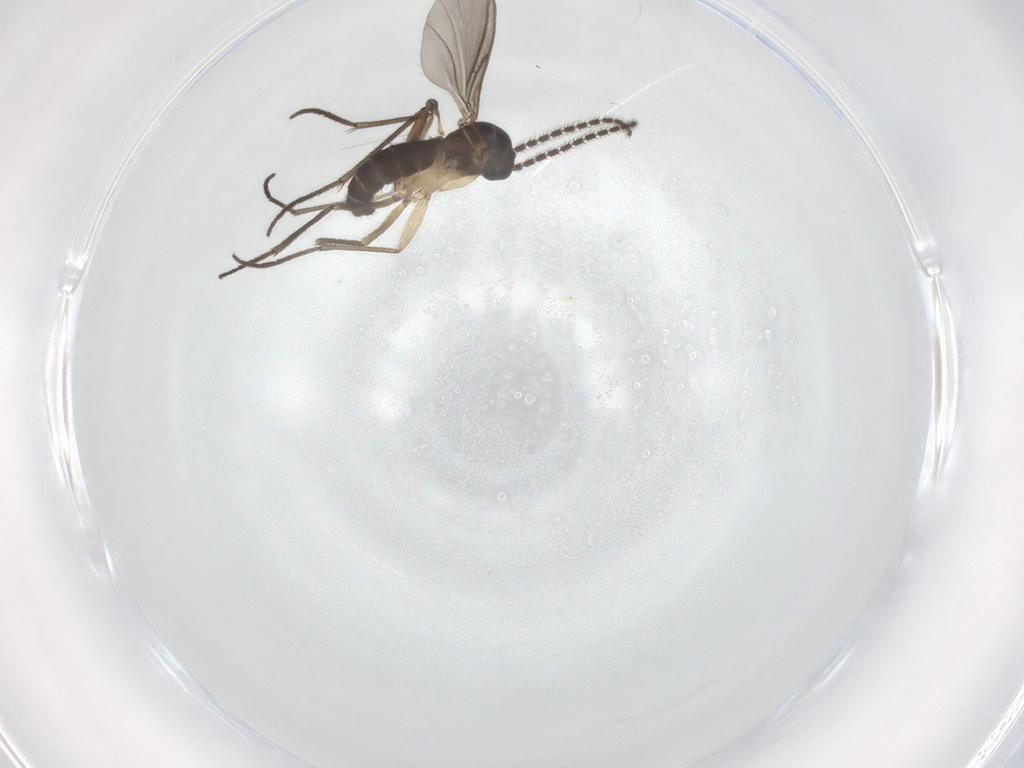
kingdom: Animalia
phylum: Arthropoda
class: Insecta
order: Diptera
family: Sciaridae
